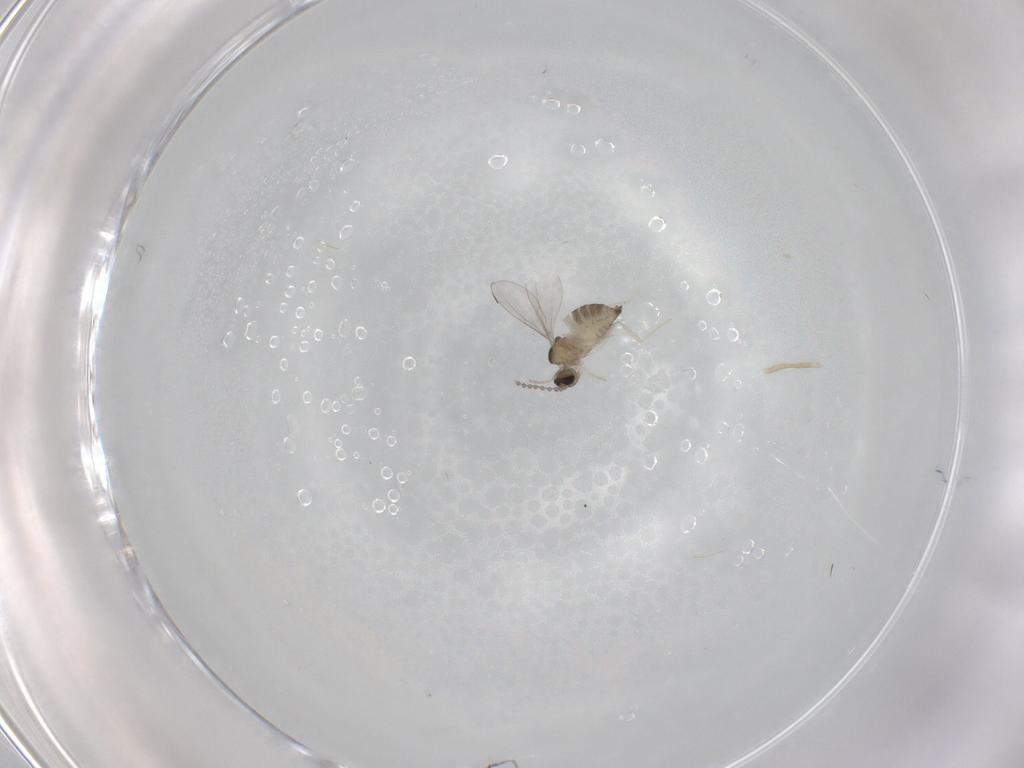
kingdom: Animalia
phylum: Arthropoda
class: Insecta
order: Diptera
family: Cecidomyiidae
